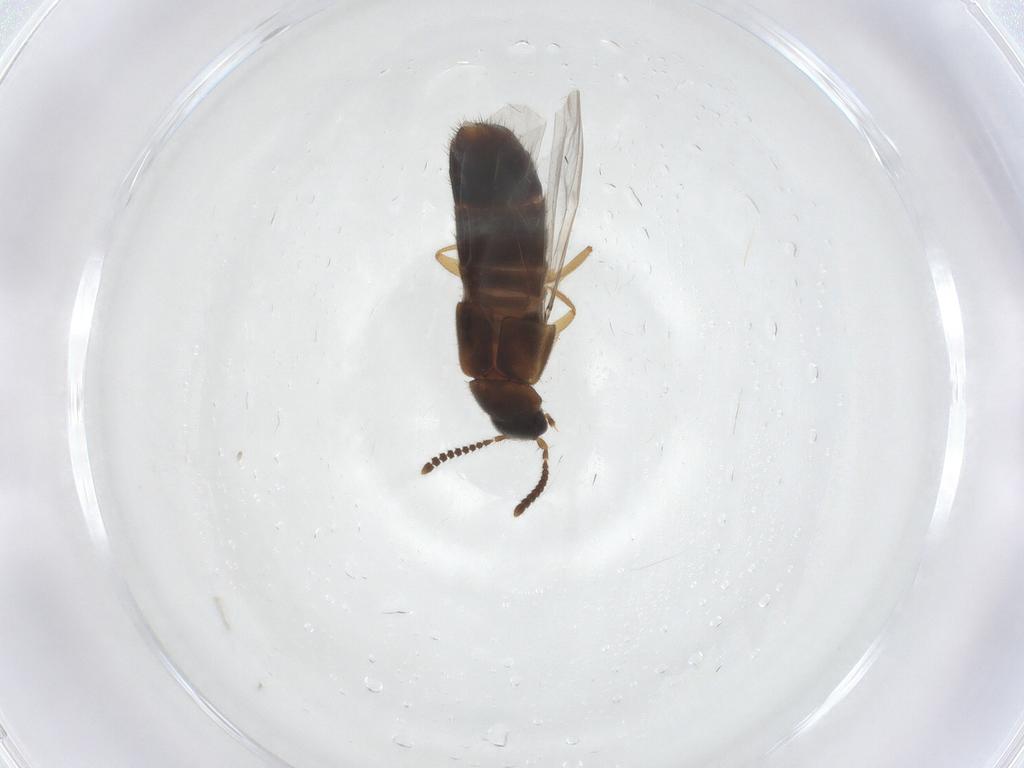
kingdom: Animalia
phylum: Arthropoda
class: Insecta
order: Coleoptera
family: Staphylinidae
